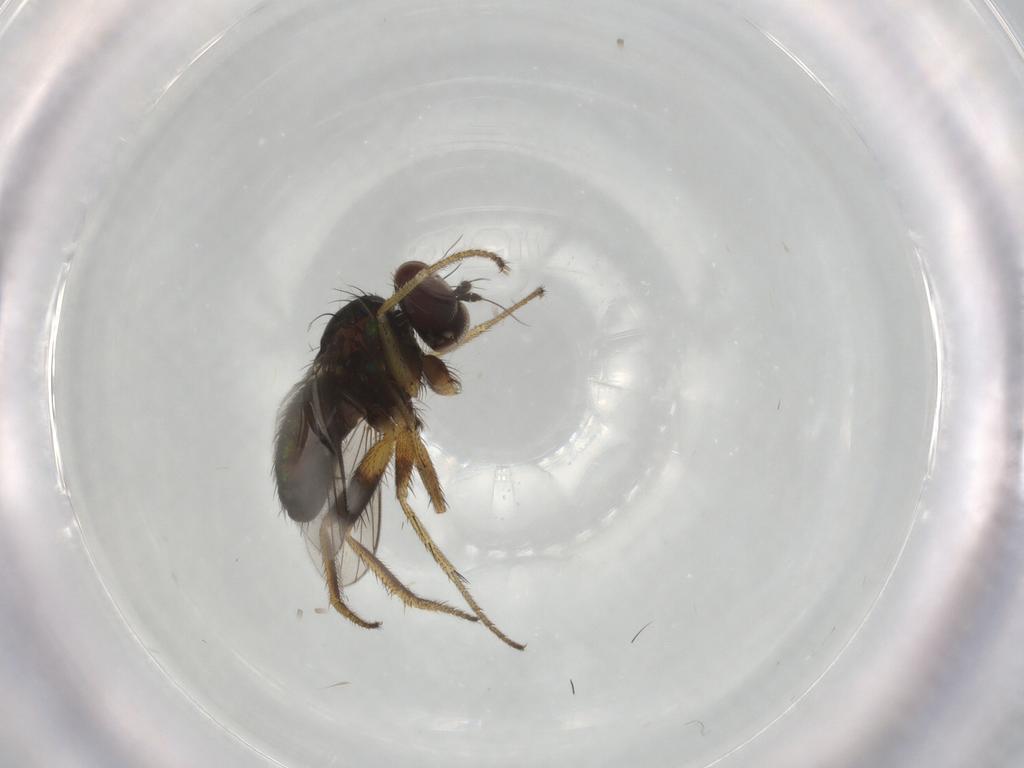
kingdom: Animalia
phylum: Arthropoda
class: Insecta
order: Diptera
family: Dolichopodidae
